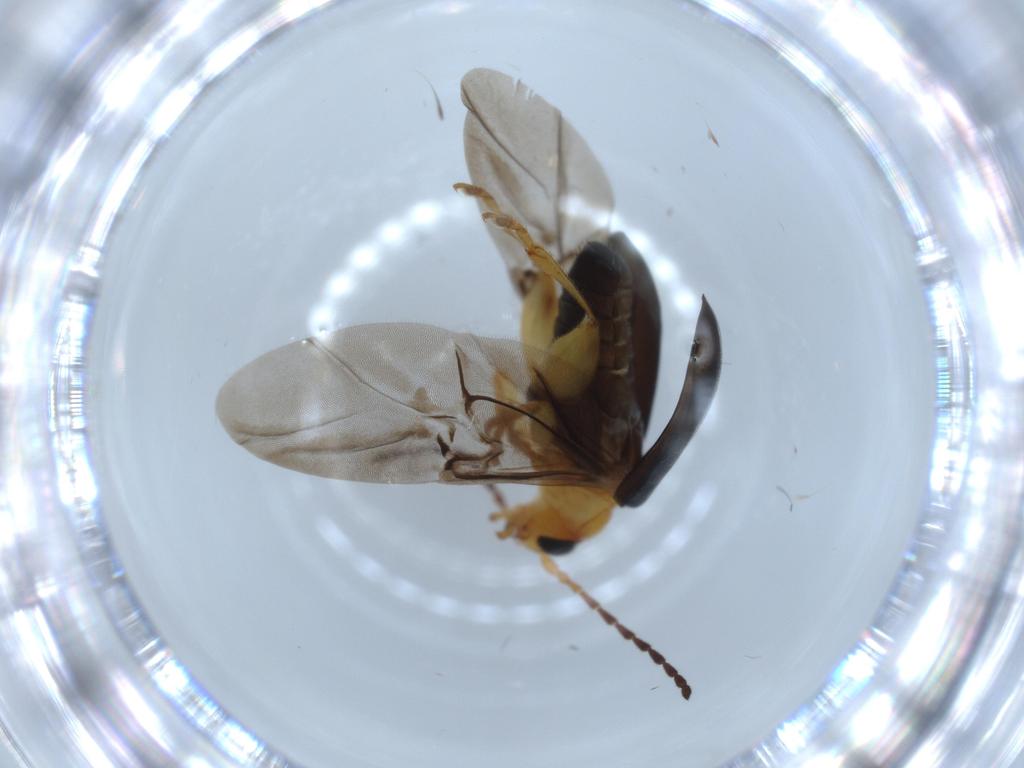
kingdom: Animalia
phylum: Arthropoda
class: Insecta
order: Coleoptera
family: Chrysomelidae
